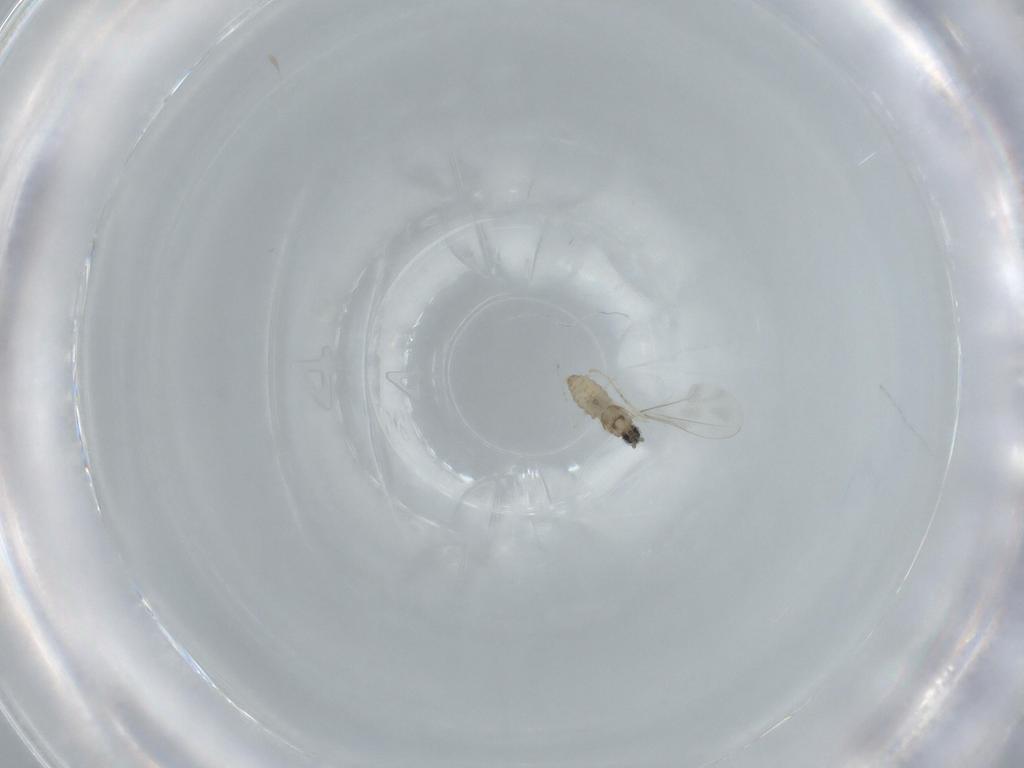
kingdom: Animalia
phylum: Arthropoda
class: Insecta
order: Diptera
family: Cecidomyiidae
